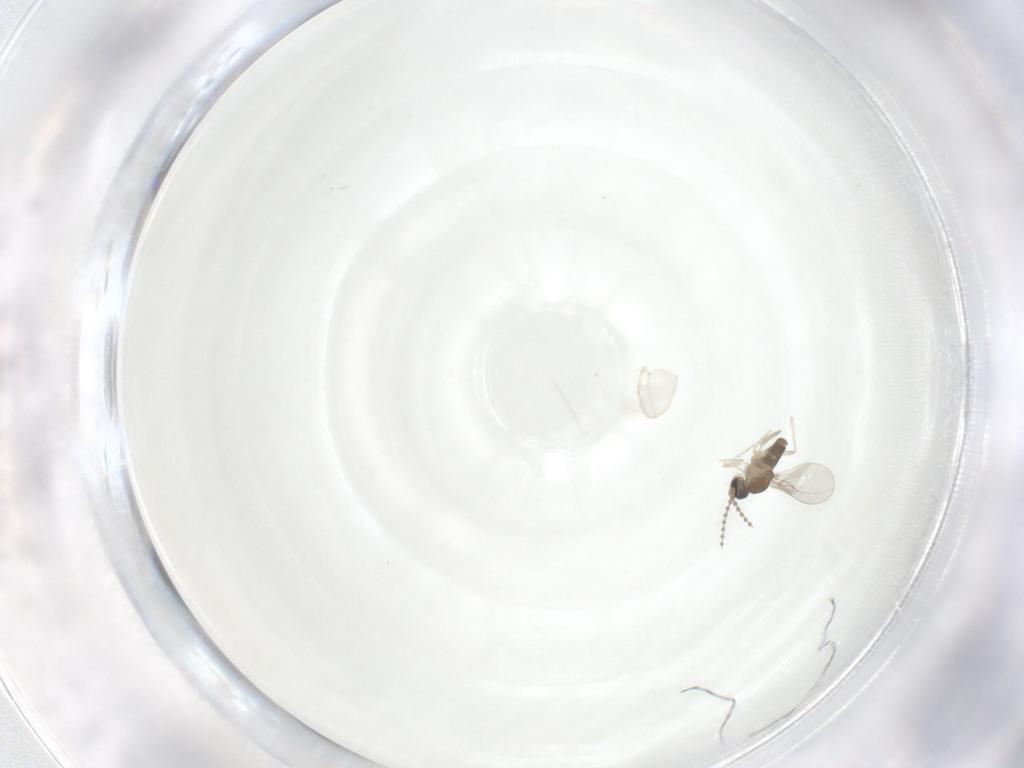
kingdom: Animalia
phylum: Arthropoda
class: Insecta
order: Diptera
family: Chironomidae
